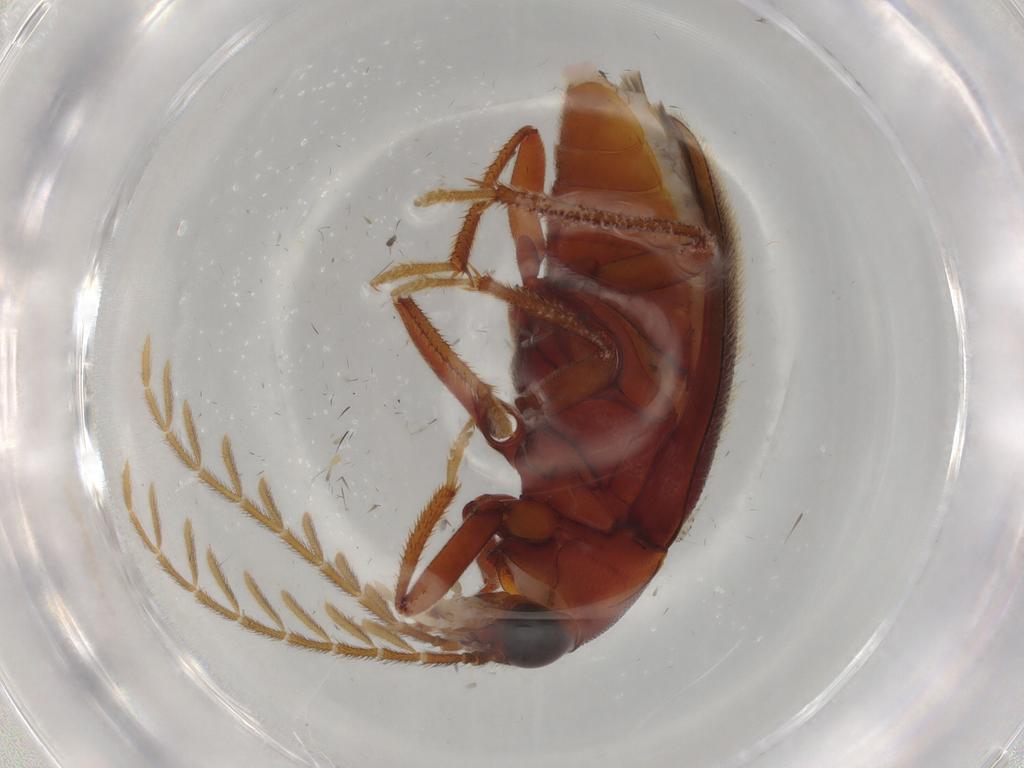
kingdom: Animalia
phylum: Arthropoda
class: Insecta
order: Coleoptera
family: Ptilodactylidae
